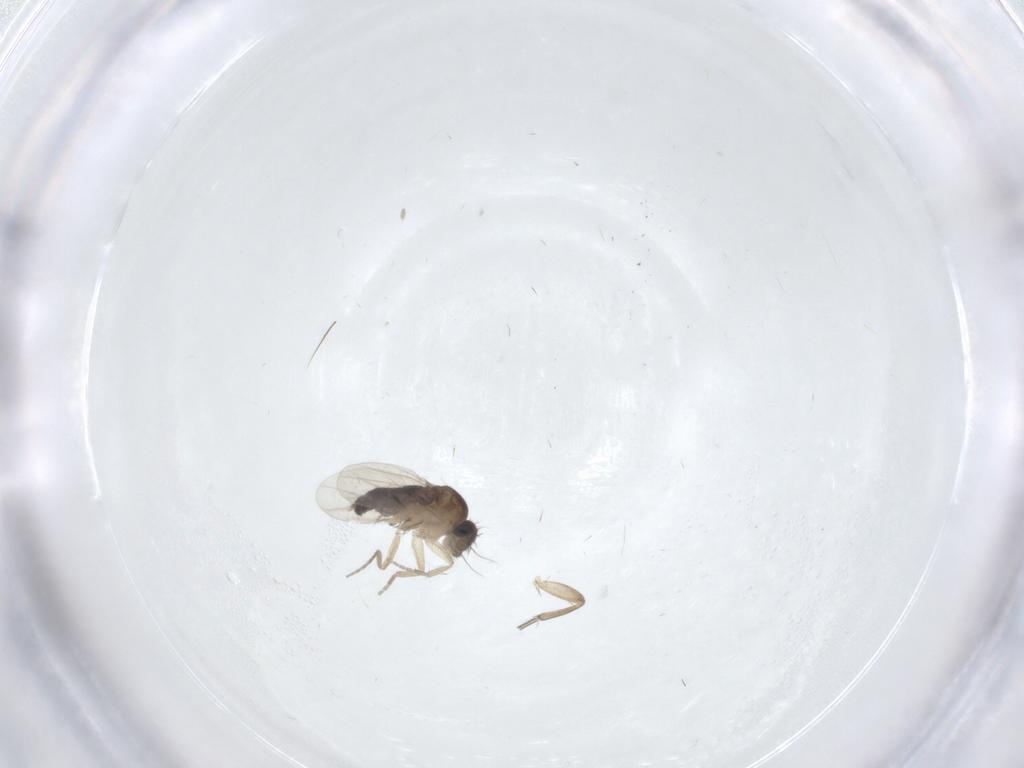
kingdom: Animalia
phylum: Arthropoda
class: Insecta
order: Diptera
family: Phoridae
